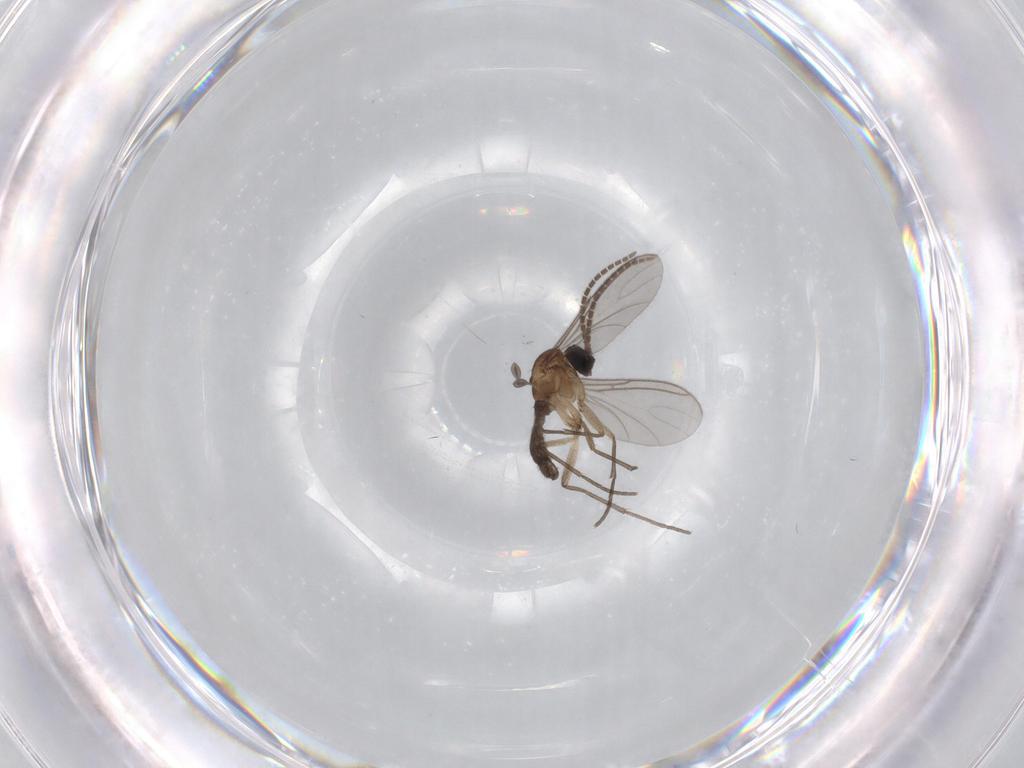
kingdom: Animalia
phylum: Arthropoda
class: Insecta
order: Diptera
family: Sciaridae
